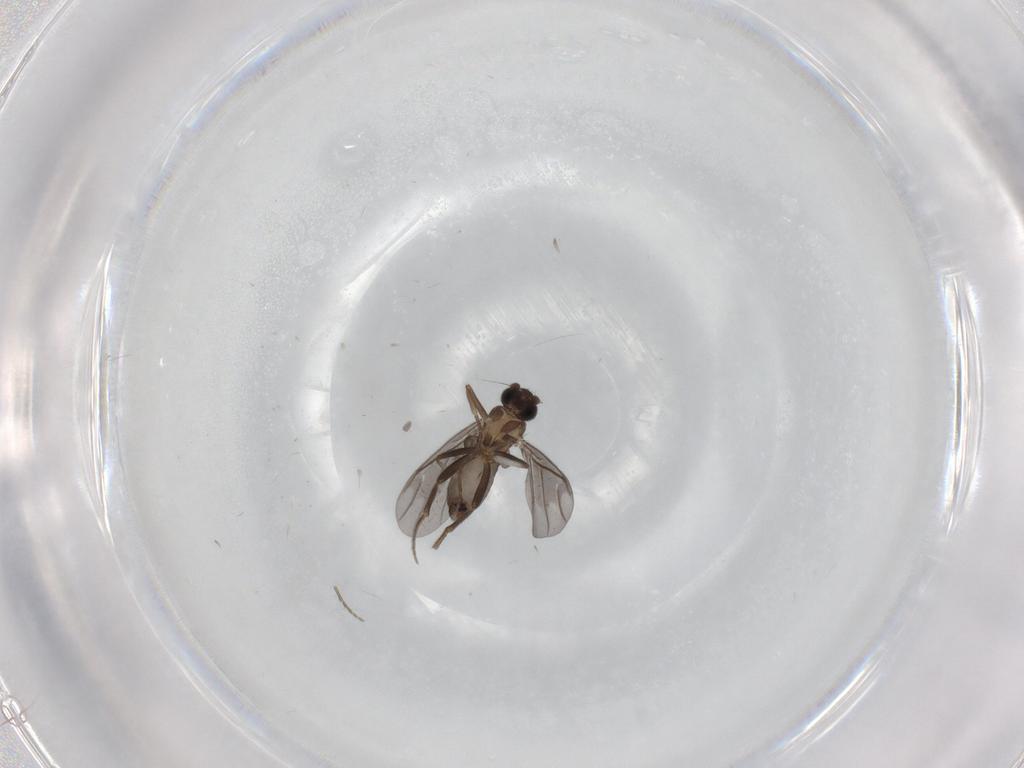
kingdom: Animalia
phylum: Arthropoda
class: Insecta
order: Diptera
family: Phoridae
